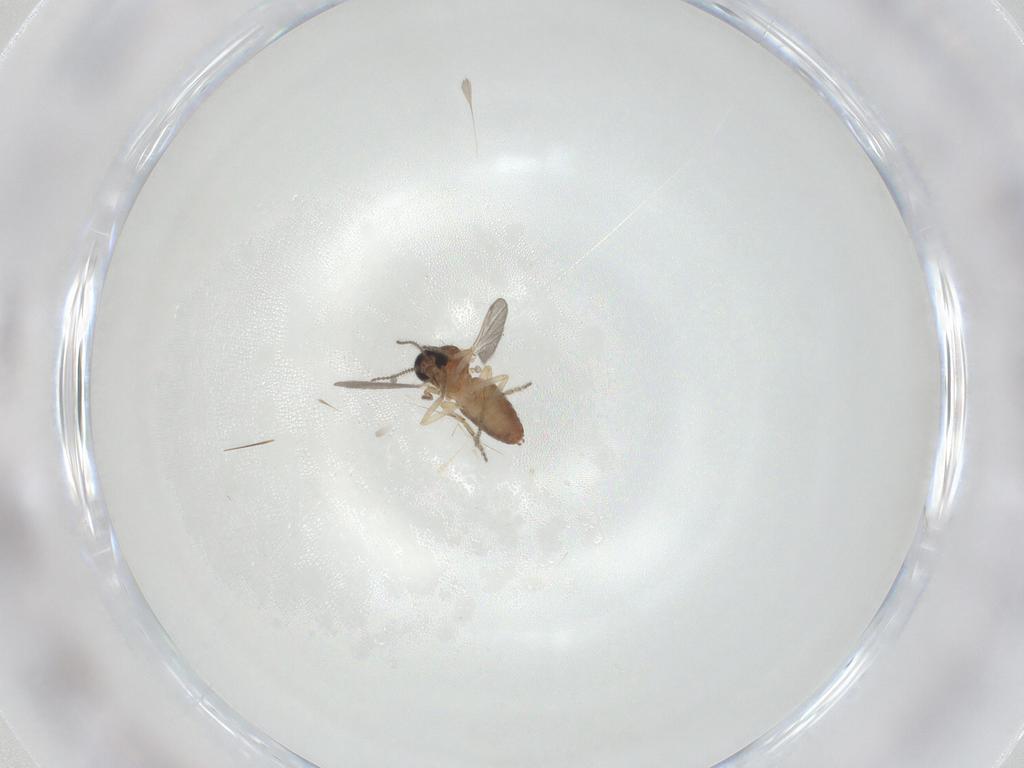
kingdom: Animalia
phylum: Arthropoda
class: Insecta
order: Diptera
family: Ceratopogonidae
